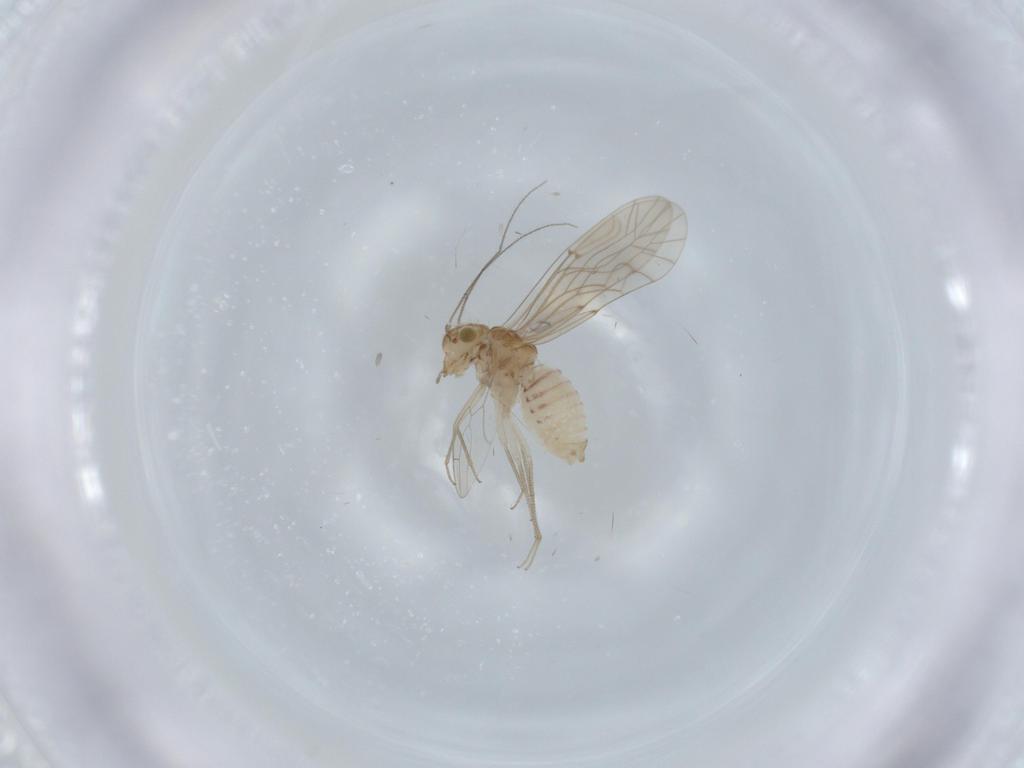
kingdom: Animalia
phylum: Arthropoda
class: Insecta
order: Psocodea
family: Lachesillidae
